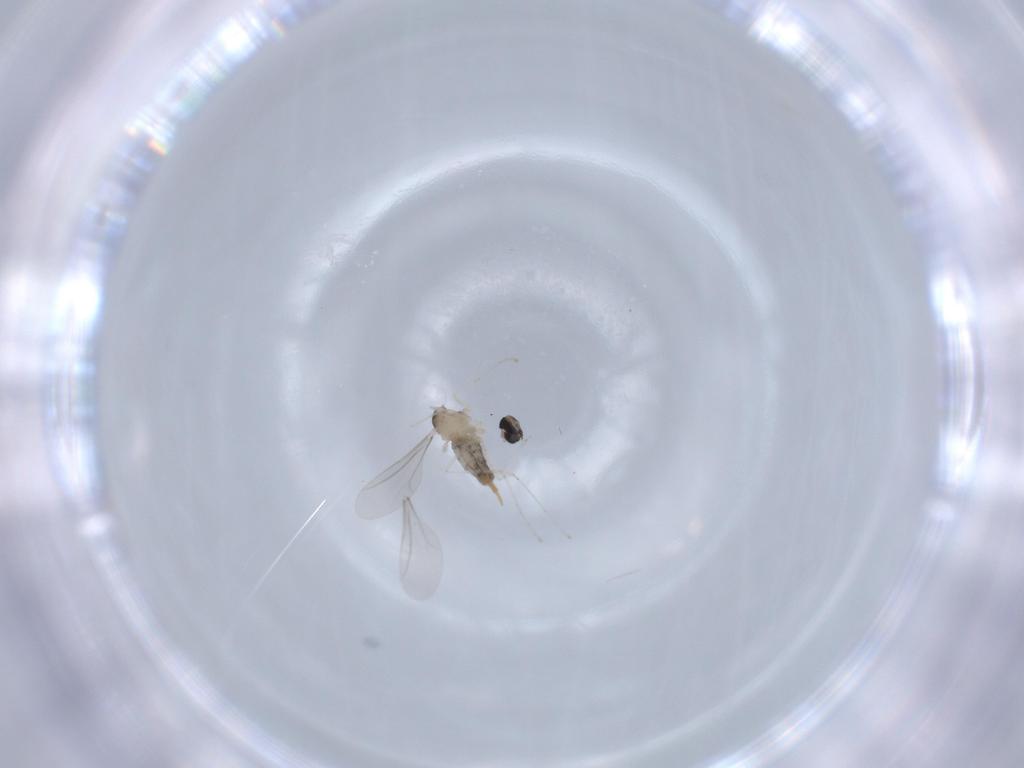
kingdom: Animalia
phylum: Arthropoda
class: Insecta
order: Diptera
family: Cecidomyiidae
